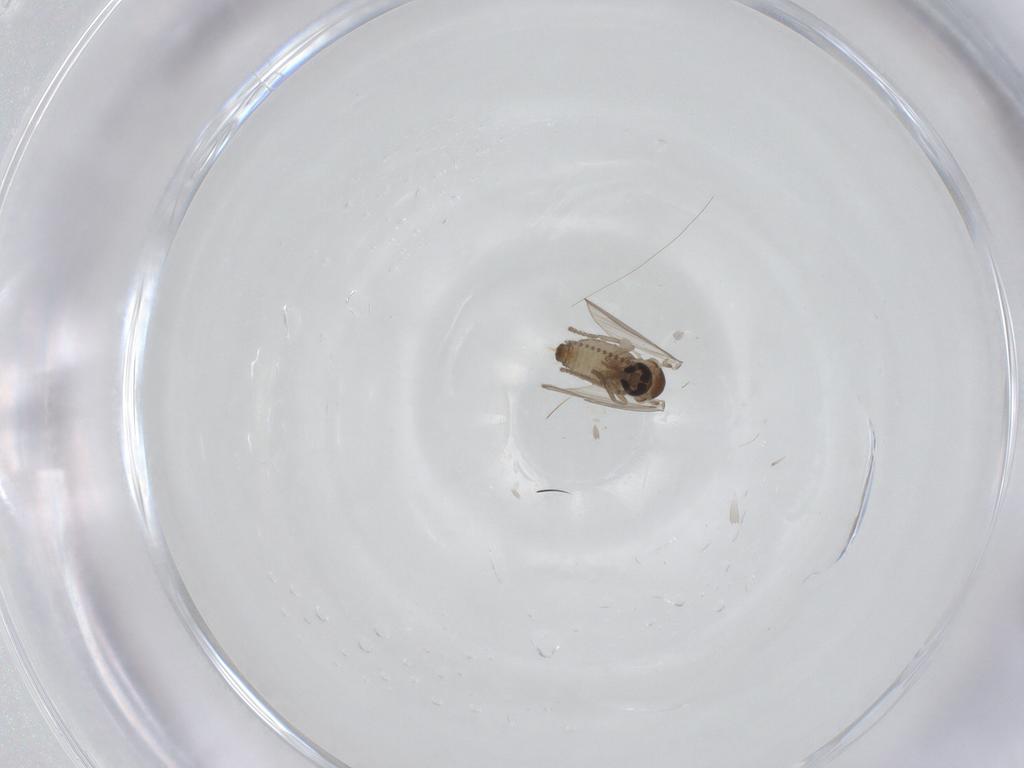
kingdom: Animalia
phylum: Arthropoda
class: Insecta
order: Diptera
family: Psychodidae
